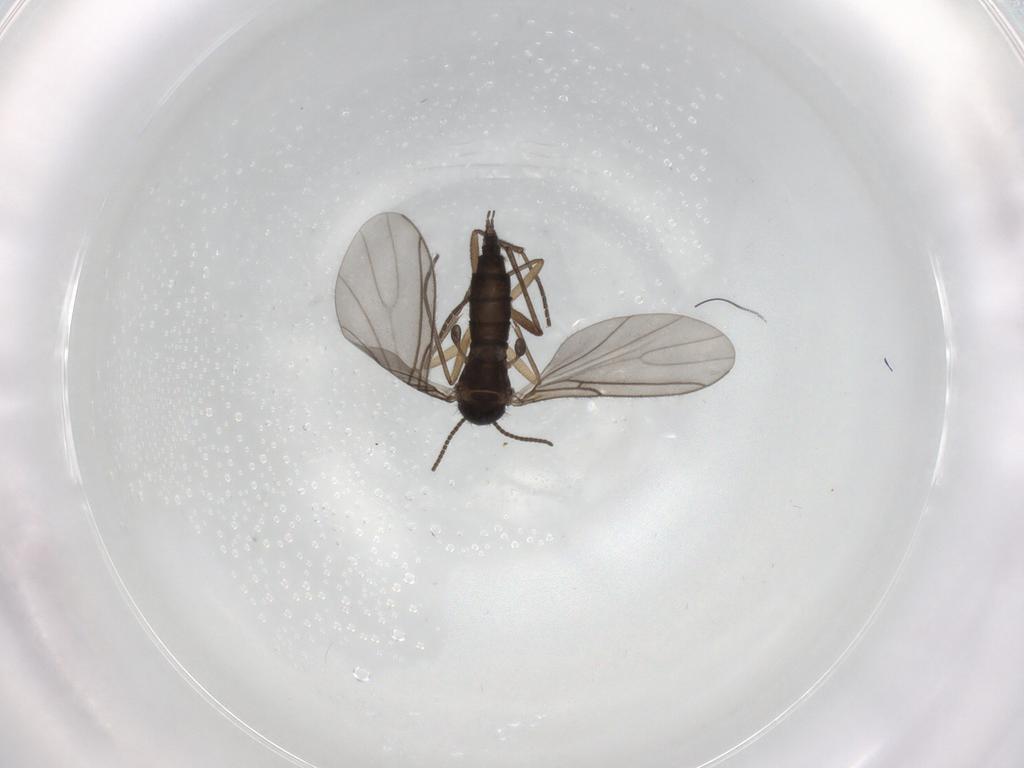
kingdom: Animalia
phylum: Arthropoda
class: Insecta
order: Diptera
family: Sciaridae
